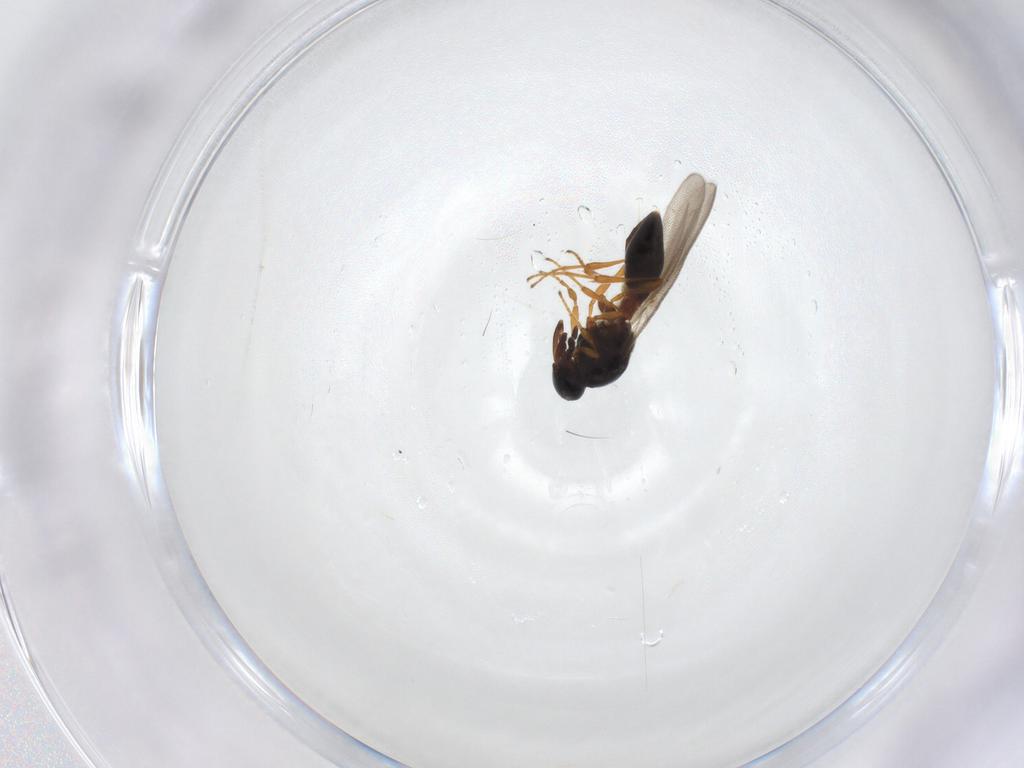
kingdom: Animalia
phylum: Arthropoda
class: Insecta
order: Hymenoptera
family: Platygastridae
